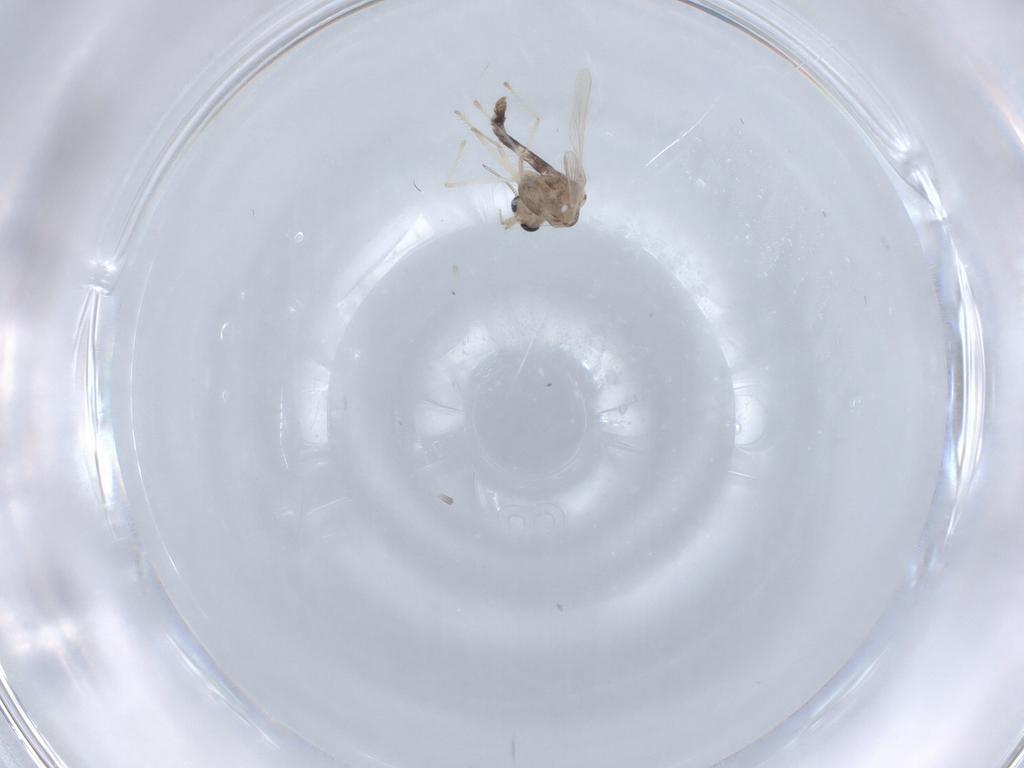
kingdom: Animalia
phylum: Arthropoda
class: Insecta
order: Diptera
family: Chironomidae
